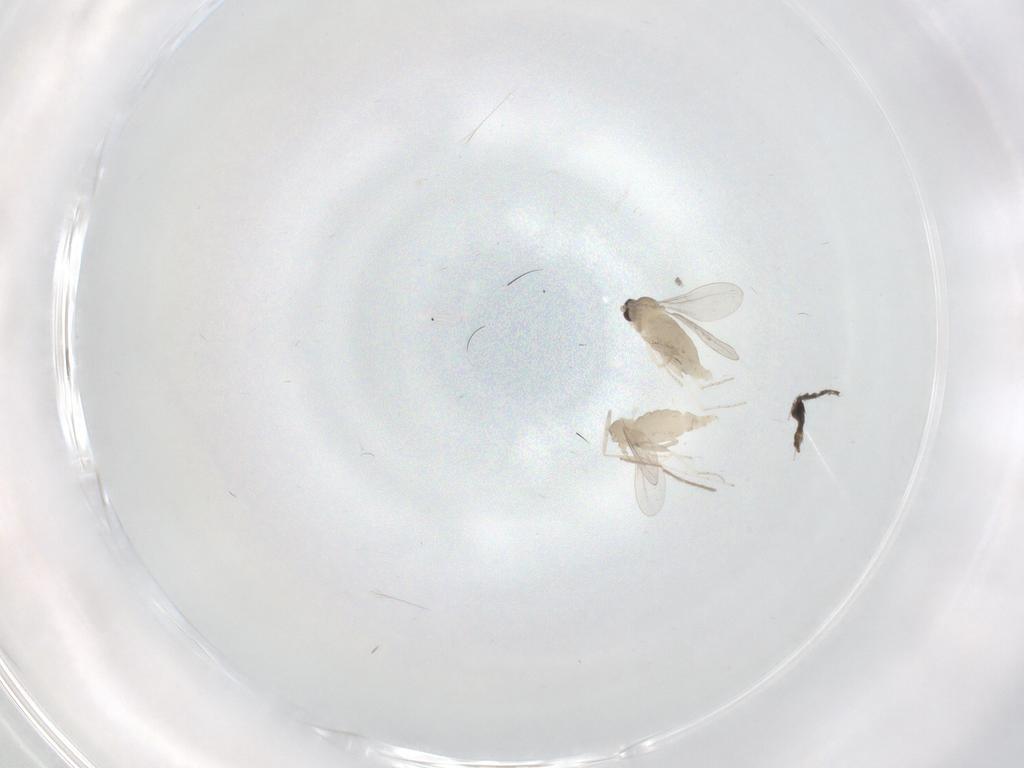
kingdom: Animalia
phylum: Arthropoda
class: Insecta
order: Diptera
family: Cecidomyiidae
